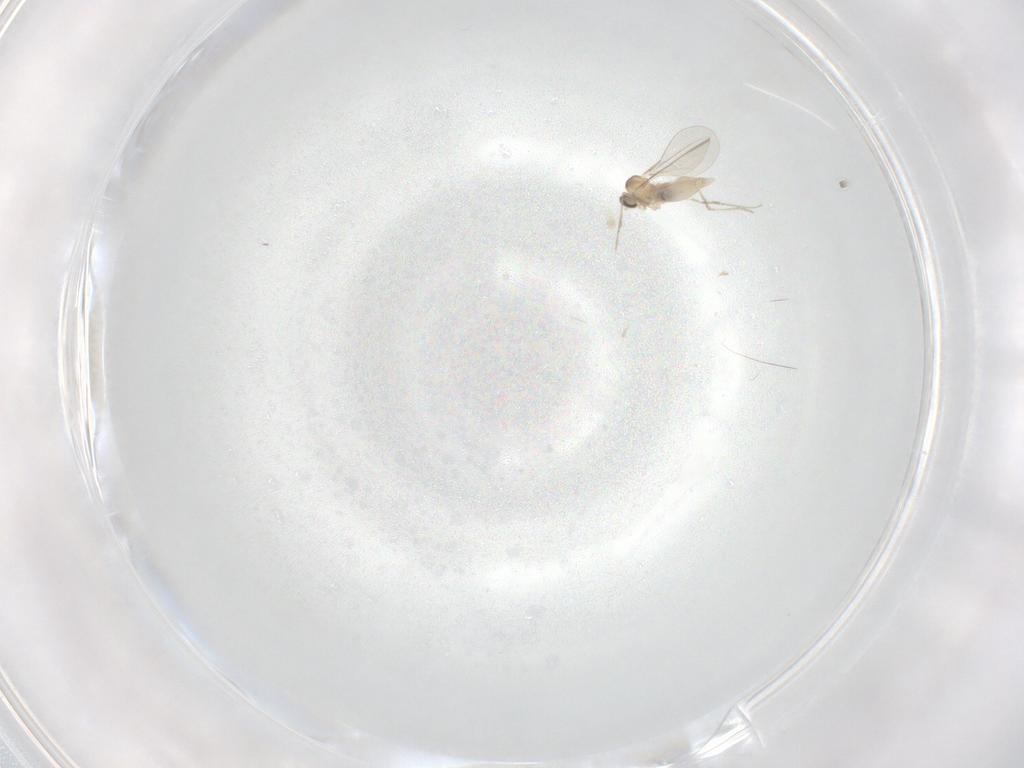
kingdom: Animalia
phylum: Arthropoda
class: Insecta
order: Diptera
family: Cecidomyiidae
